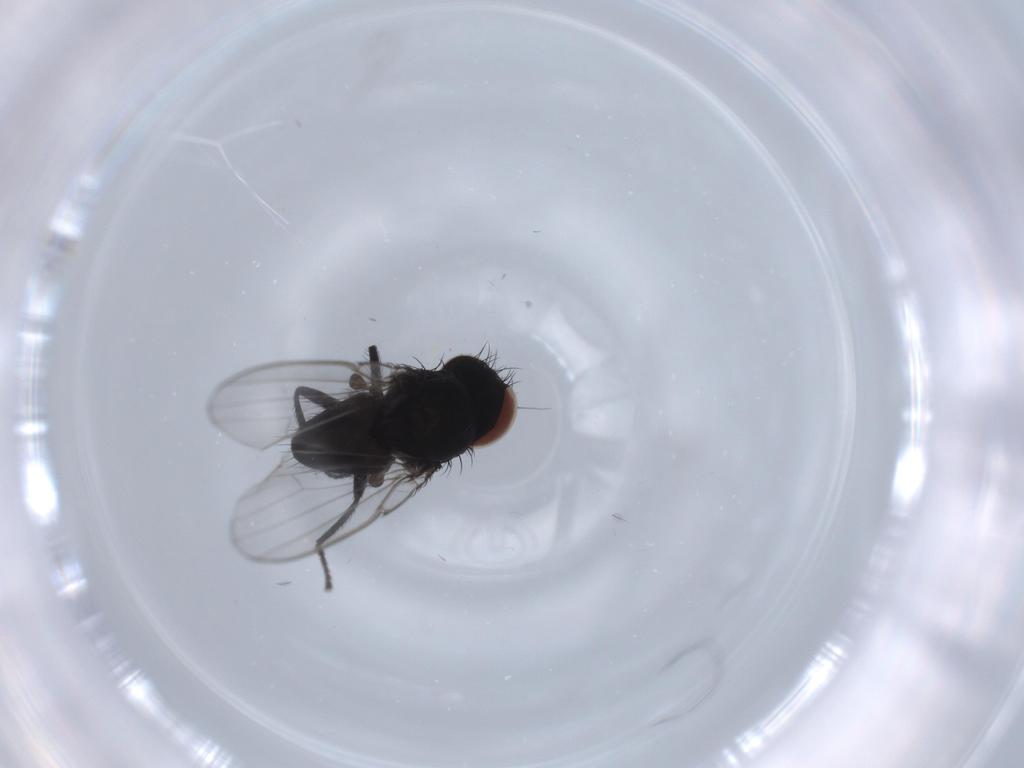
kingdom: Animalia
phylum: Arthropoda
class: Insecta
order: Diptera
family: Milichiidae
